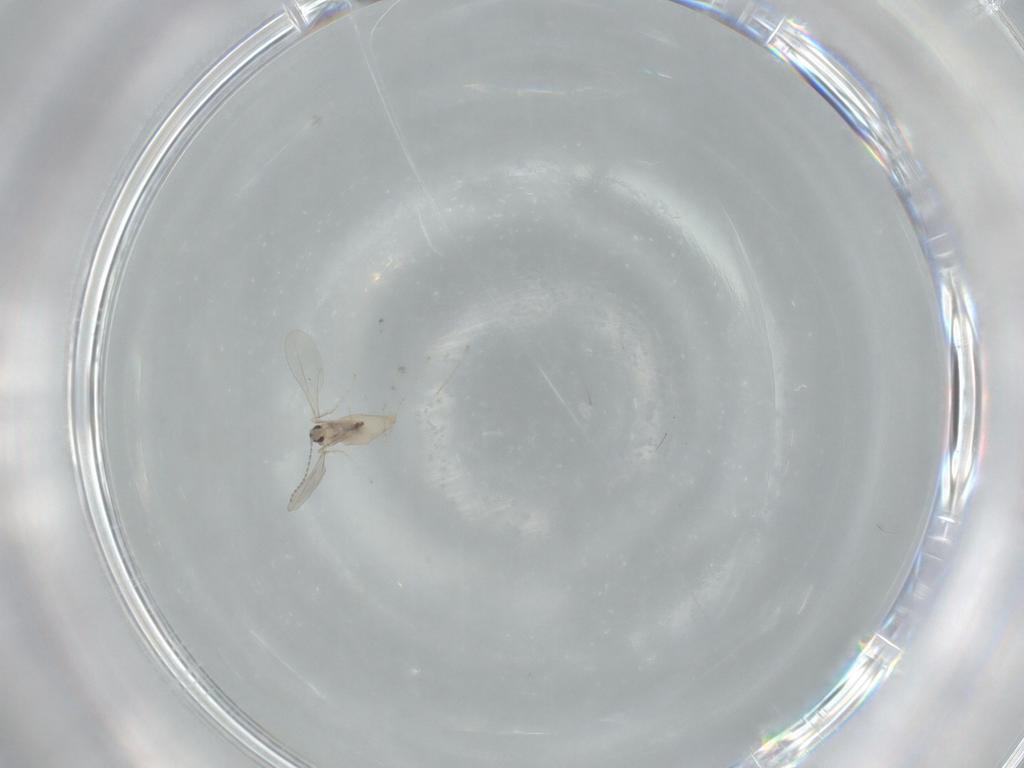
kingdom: Animalia
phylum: Arthropoda
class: Insecta
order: Diptera
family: Cecidomyiidae
